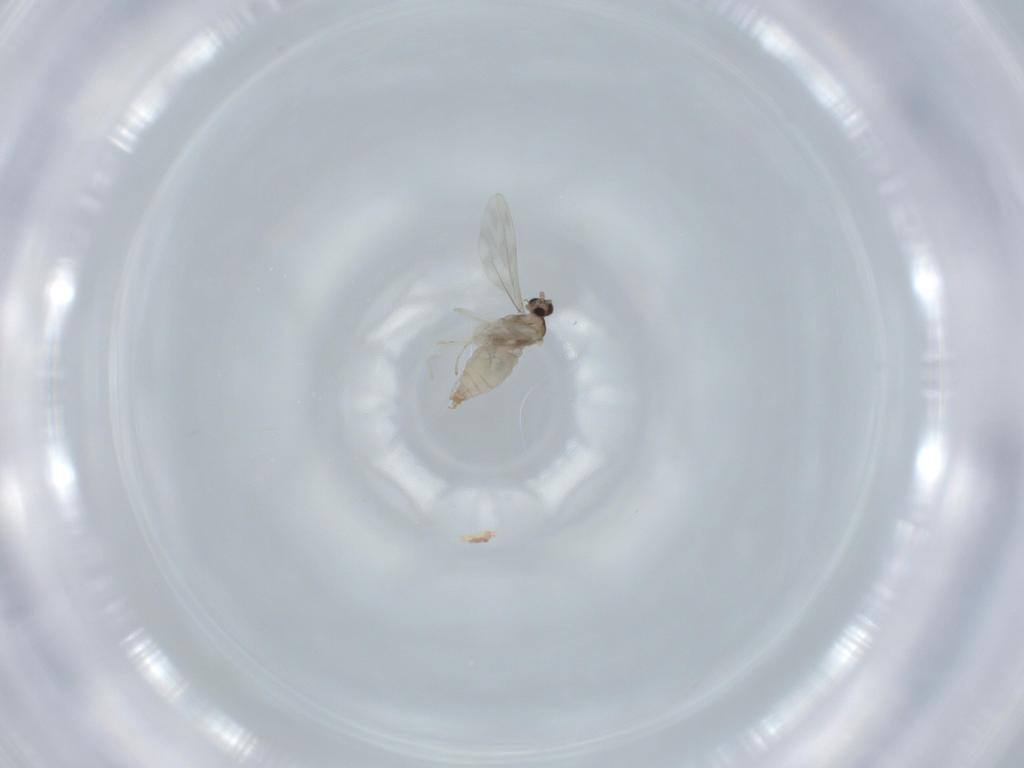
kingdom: Animalia
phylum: Arthropoda
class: Insecta
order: Diptera
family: Cecidomyiidae
